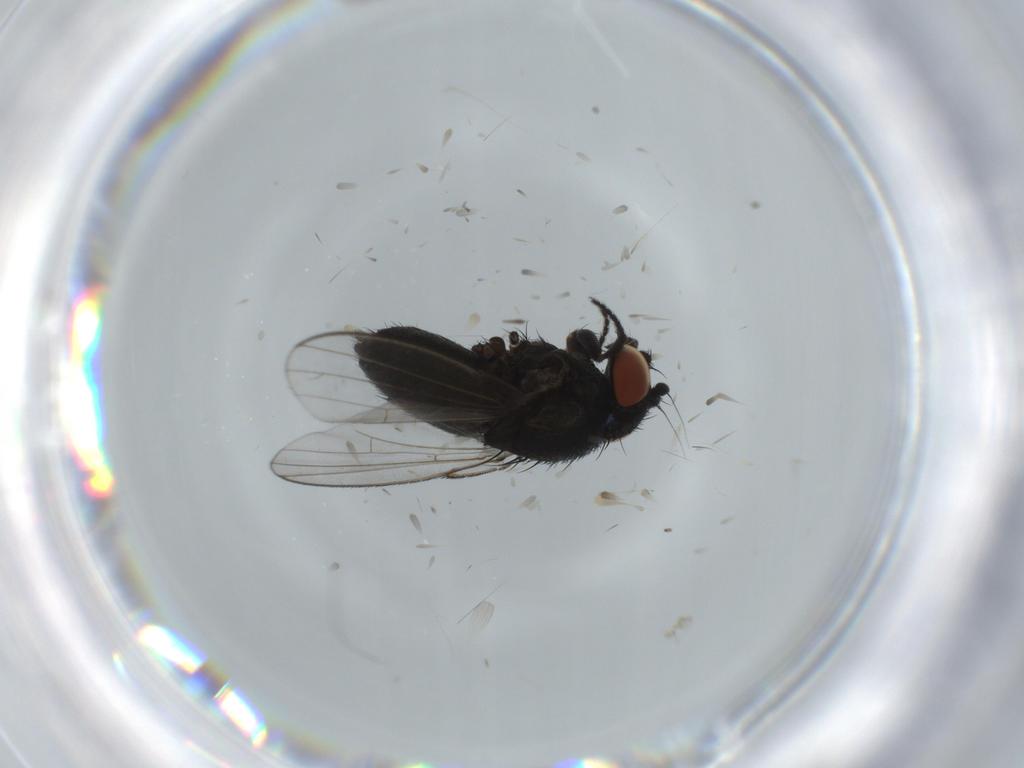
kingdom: Animalia
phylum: Arthropoda
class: Insecta
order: Diptera
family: Milichiidae
